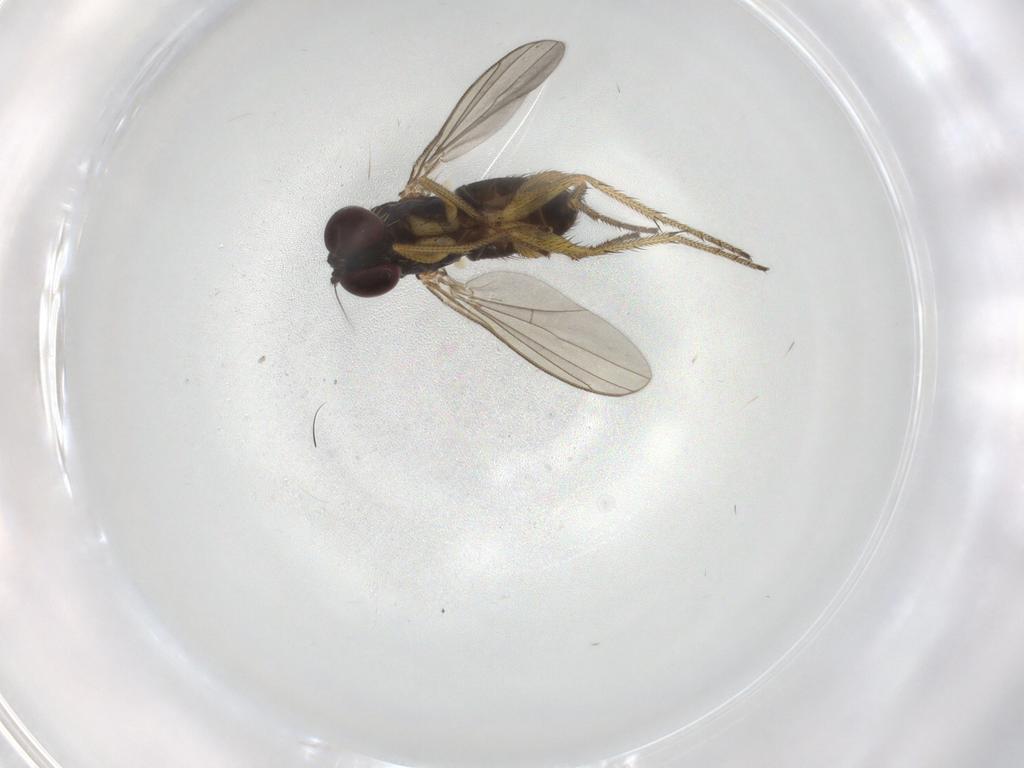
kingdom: Animalia
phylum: Arthropoda
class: Insecta
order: Diptera
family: Dolichopodidae
